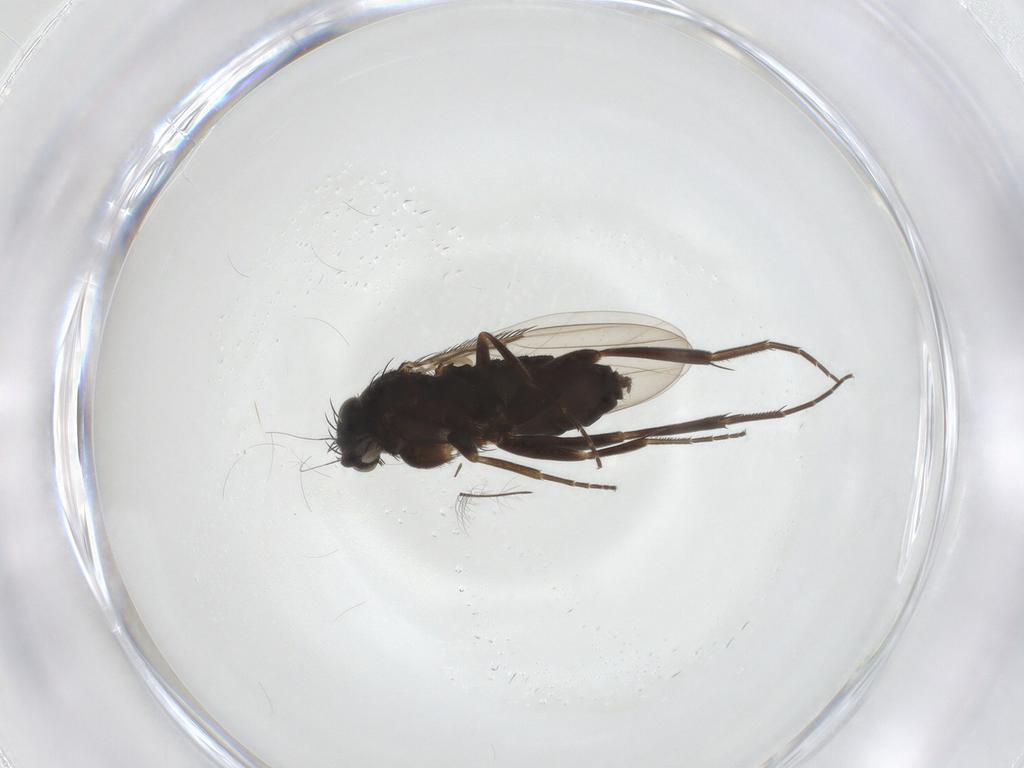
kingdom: Animalia
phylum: Arthropoda
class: Insecta
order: Diptera
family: Phoridae
